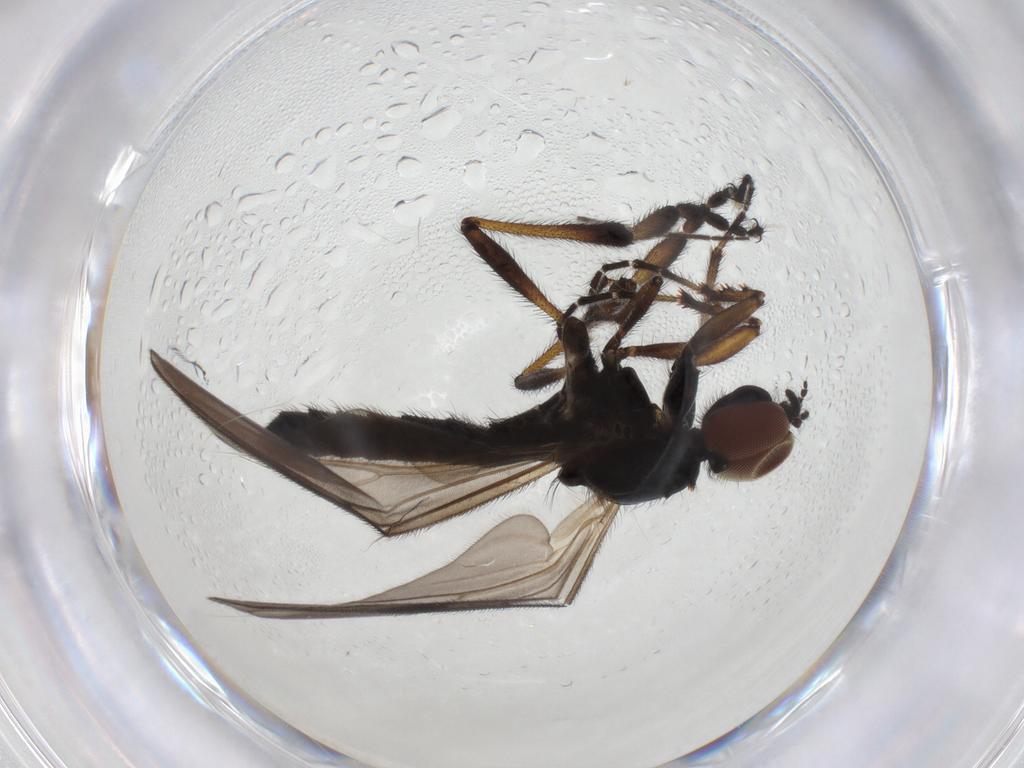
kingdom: Animalia
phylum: Arthropoda
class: Insecta
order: Diptera
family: Bibionidae
